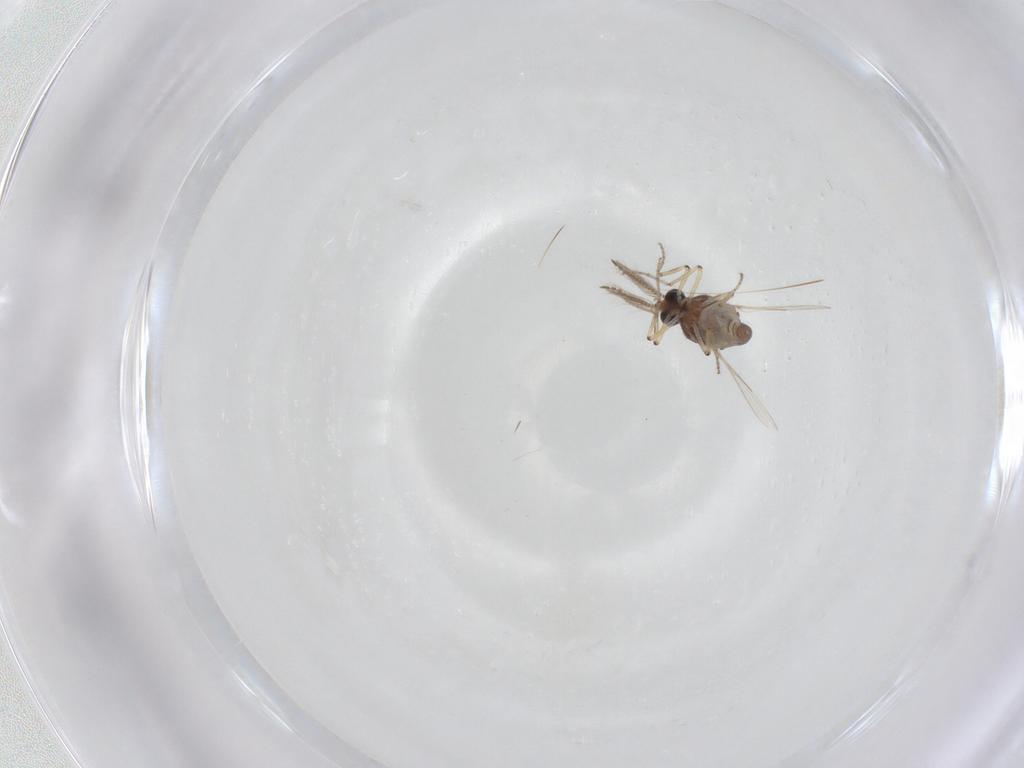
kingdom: Animalia
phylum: Arthropoda
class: Insecta
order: Diptera
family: Ceratopogonidae
